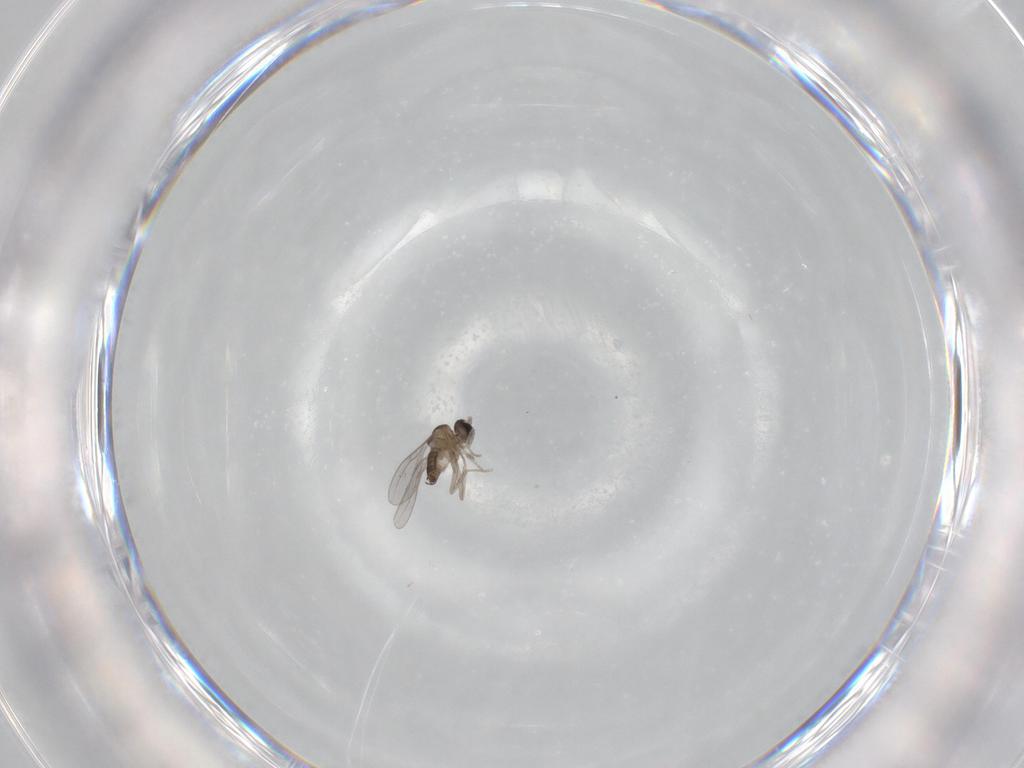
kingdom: Animalia
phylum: Arthropoda
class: Insecta
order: Diptera
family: Cecidomyiidae
